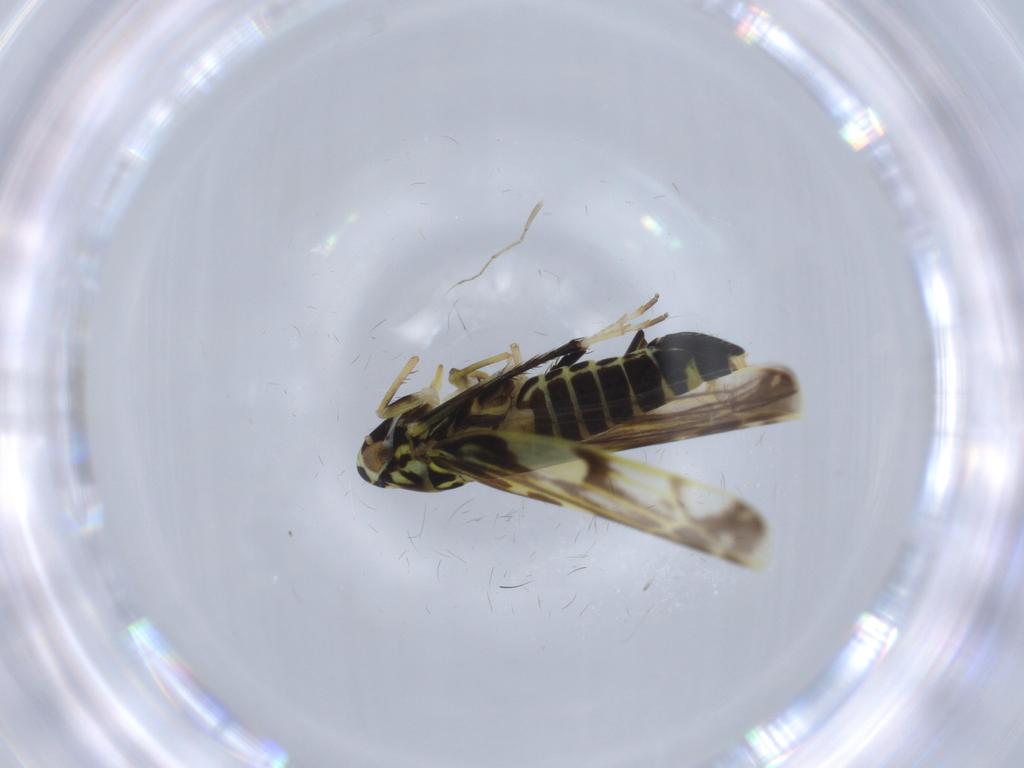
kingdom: Animalia
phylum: Arthropoda
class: Insecta
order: Hemiptera
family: Cicadellidae
